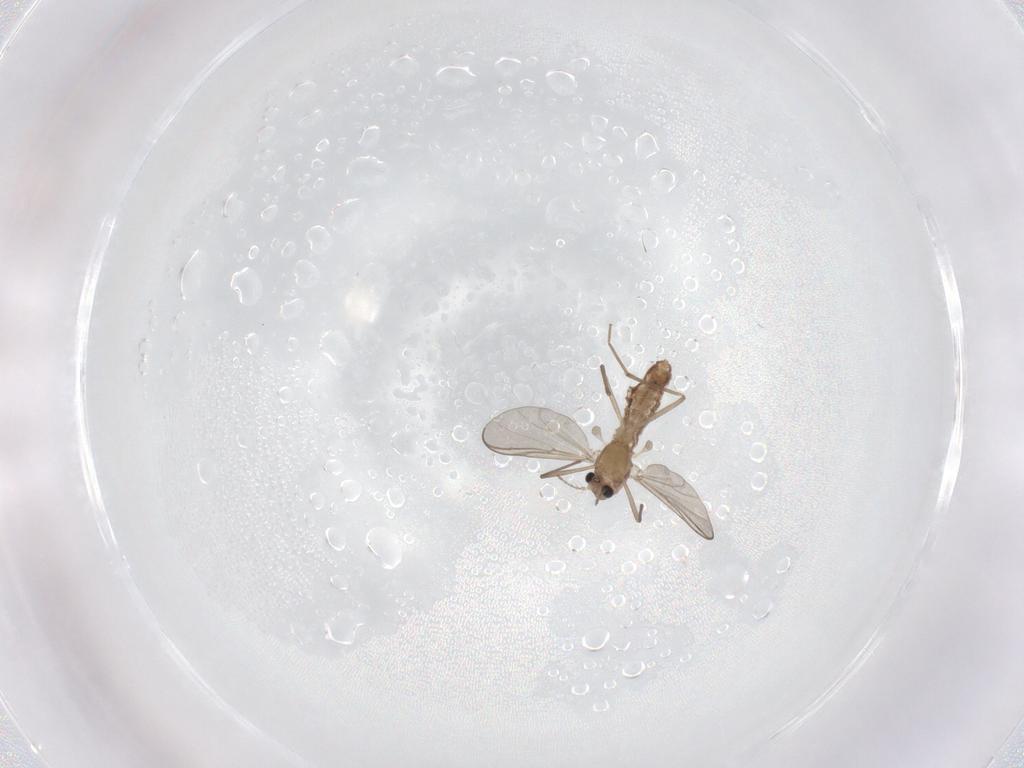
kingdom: Animalia
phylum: Arthropoda
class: Insecta
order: Diptera
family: Chironomidae
